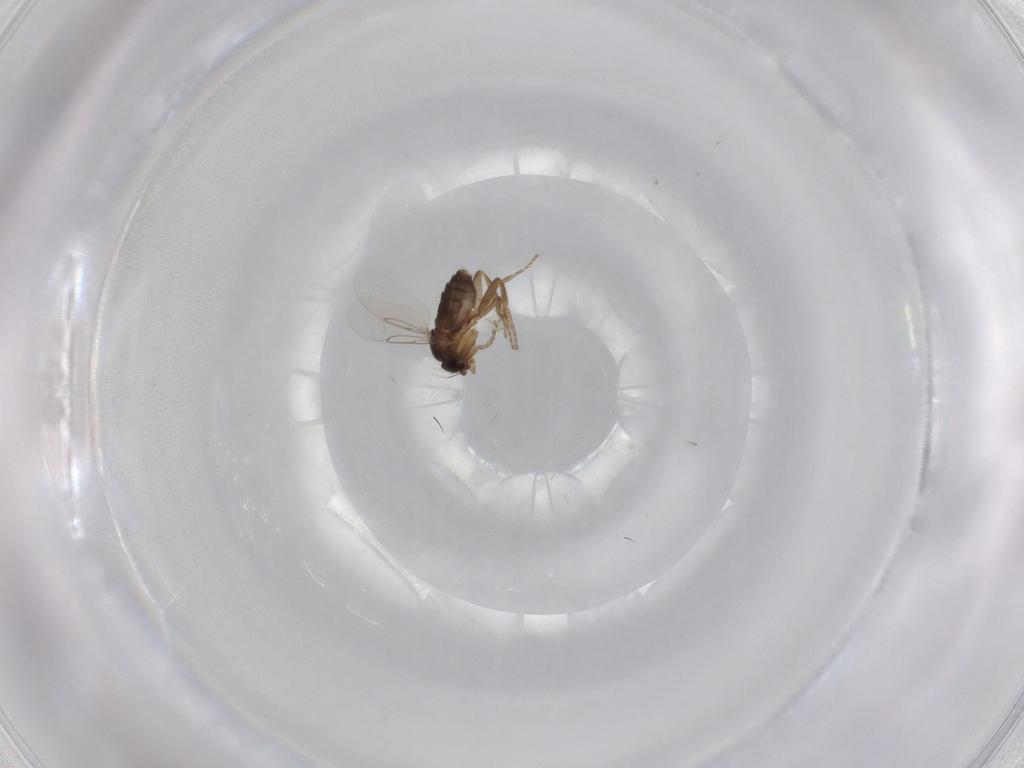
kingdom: Animalia
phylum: Arthropoda
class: Insecta
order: Diptera
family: Phoridae
